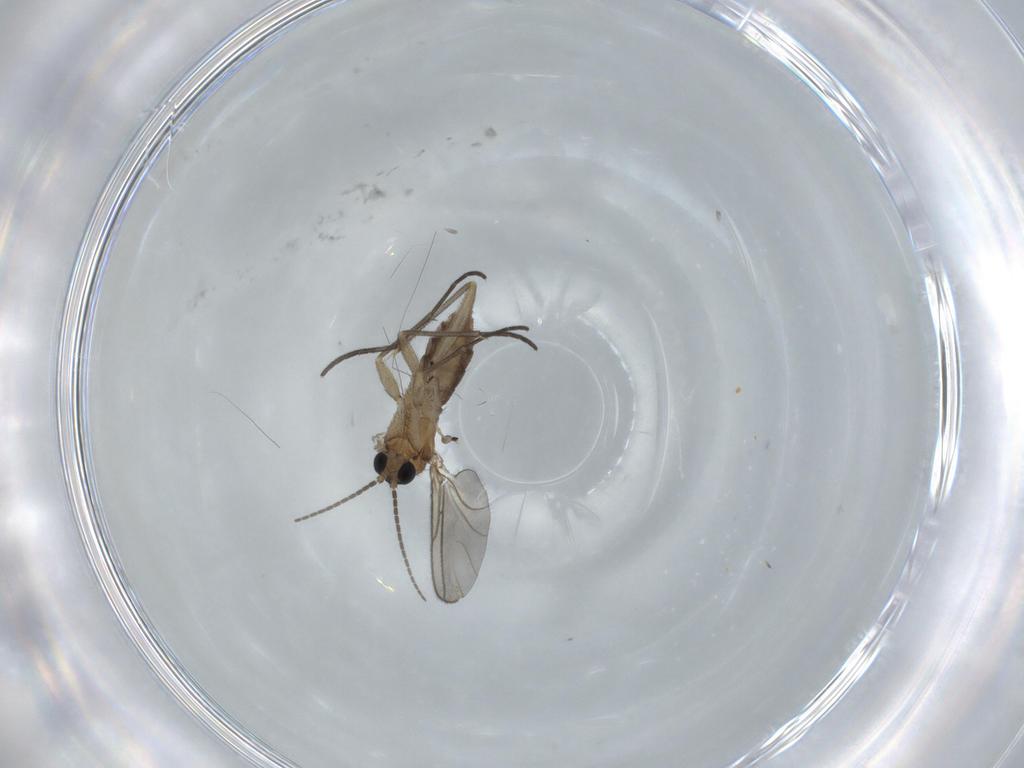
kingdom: Animalia
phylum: Arthropoda
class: Insecta
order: Diptera
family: Sciaridae
